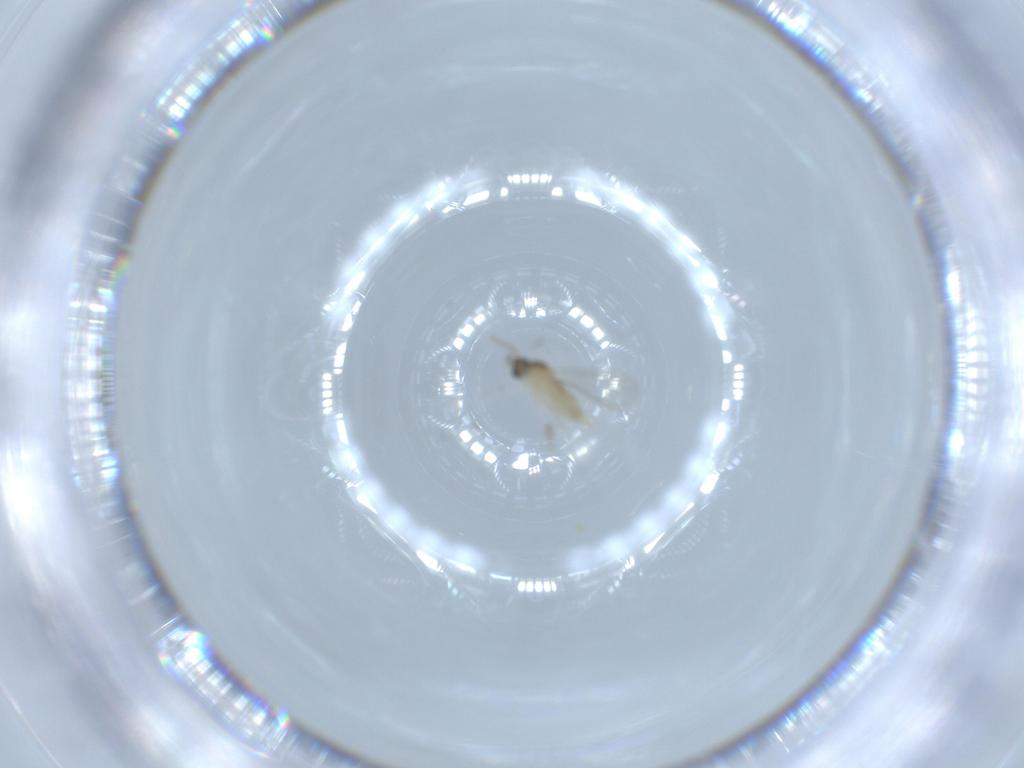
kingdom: Animalia
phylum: Arthropoda
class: Insecta
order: Diptera
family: Cecidomyiidae
